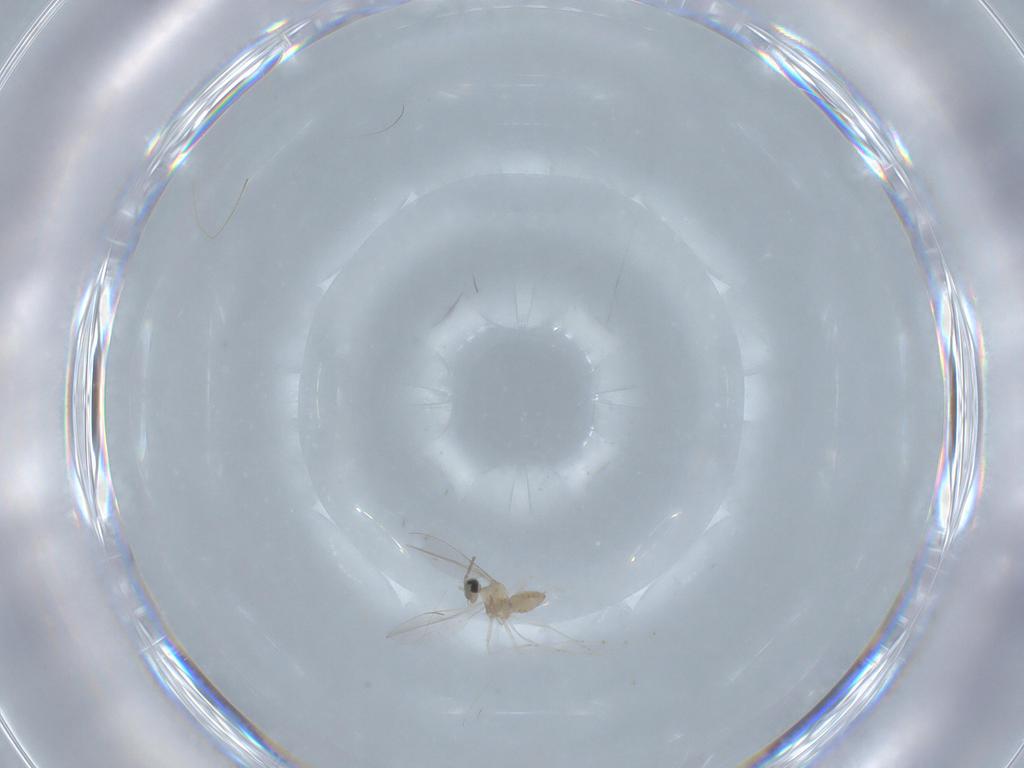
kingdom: Animalia
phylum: Arthropoda
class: Insecta
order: Diptera
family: Cecidomyiidae
